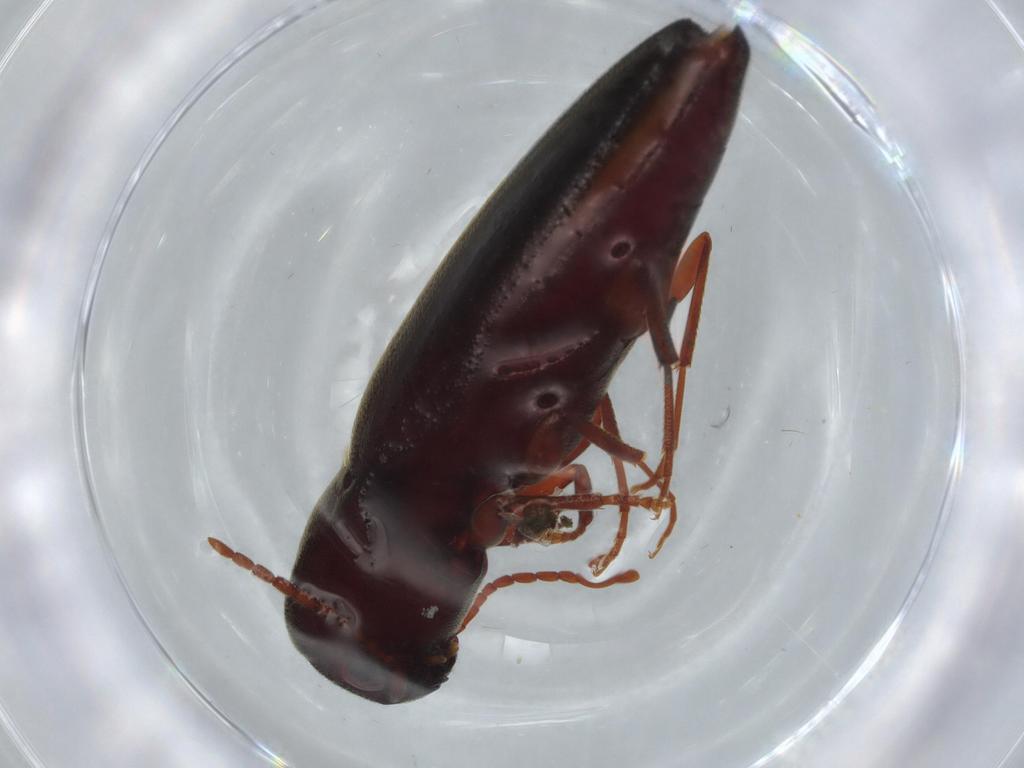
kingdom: Animalia
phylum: Arthropoda
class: Insecta
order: Coleoptera
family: Eucnemidae
